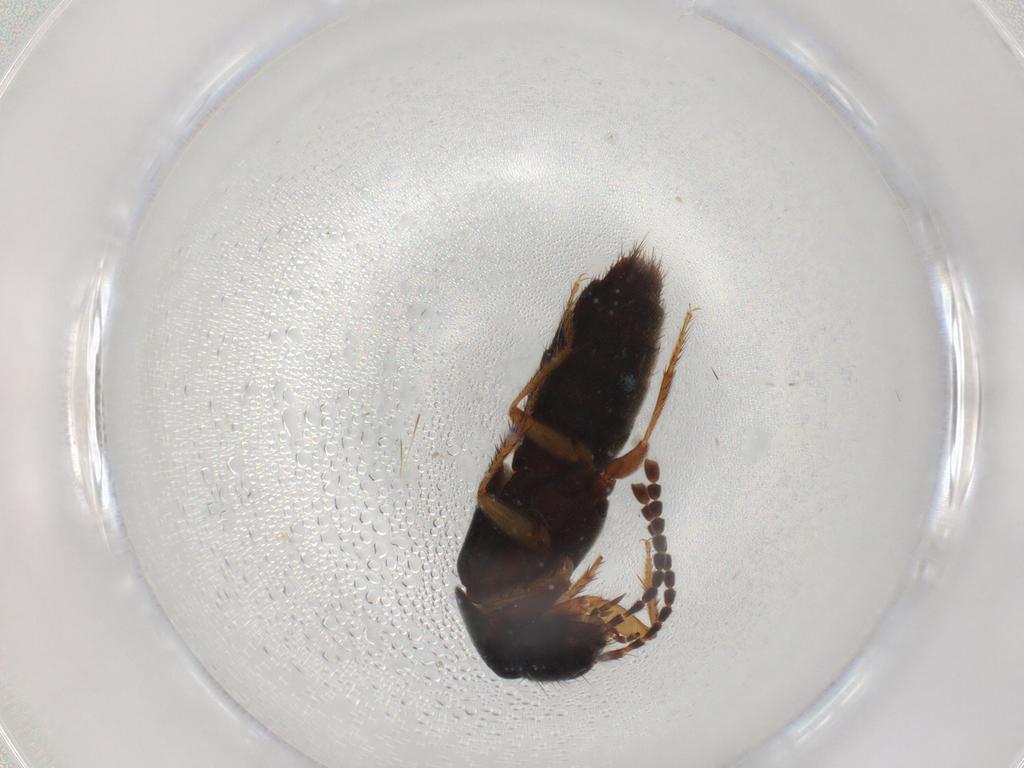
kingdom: Animalia
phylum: Arthropoda
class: Insecta
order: Coleoptera
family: Staphylinidae
